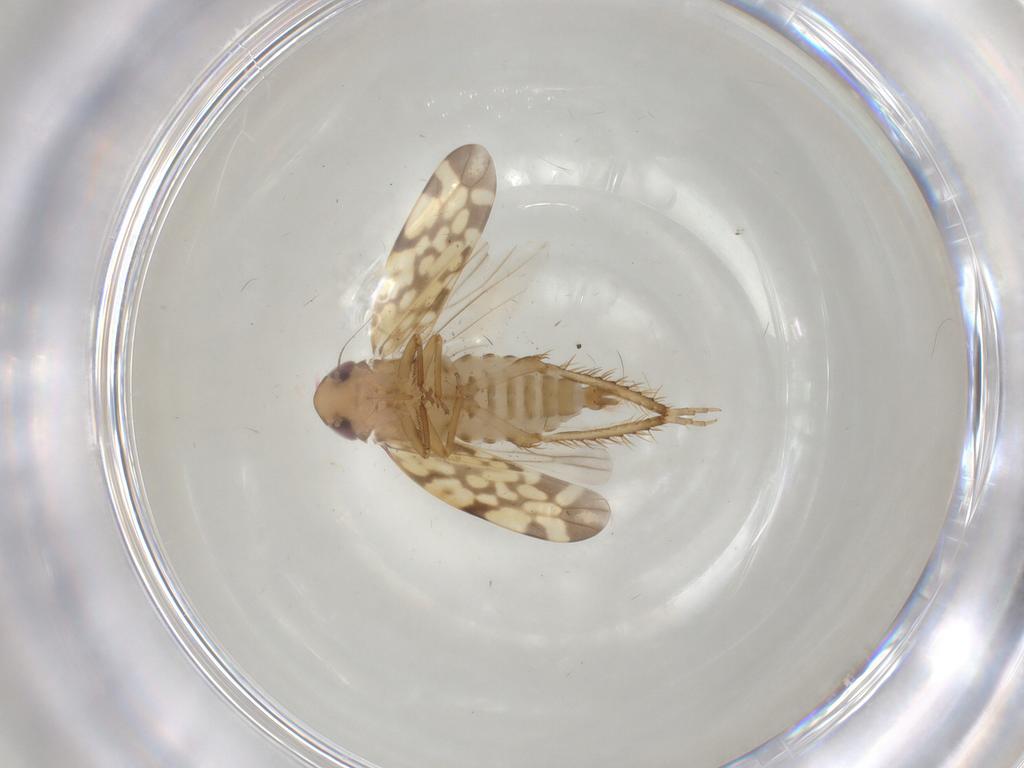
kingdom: Animalia
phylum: Arthropoda
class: Insecta
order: Hemiptera
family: Cicadellidae
